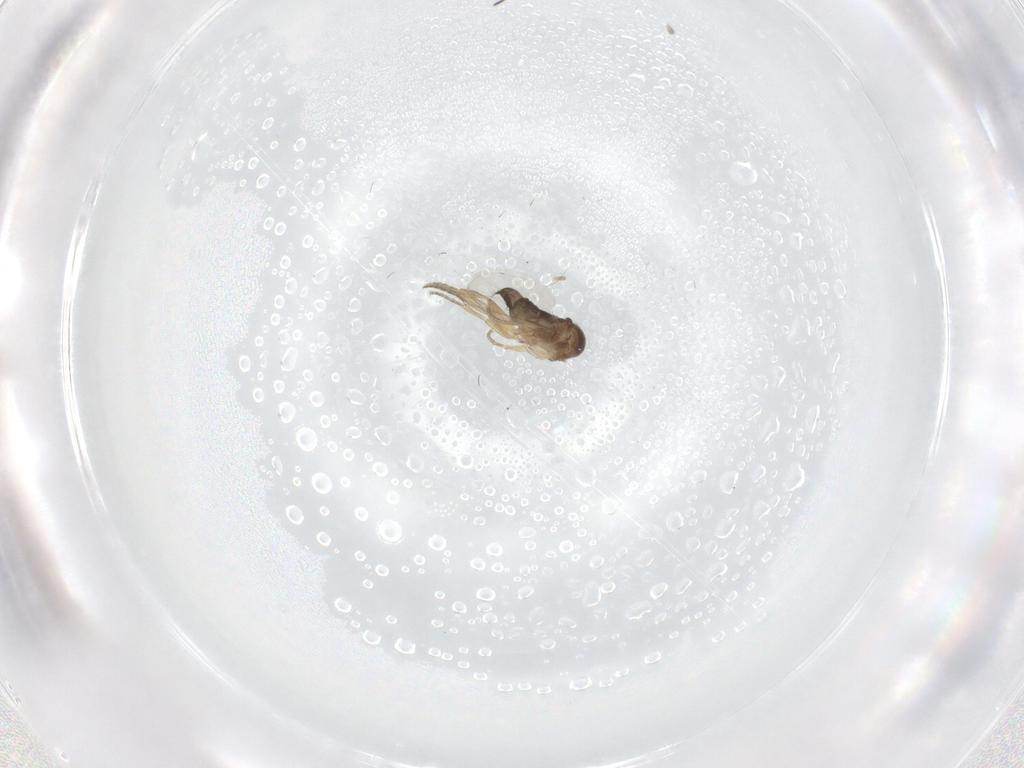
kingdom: Animalia
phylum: Arthropoda
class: Insecta
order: Diptera
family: Phoridae
